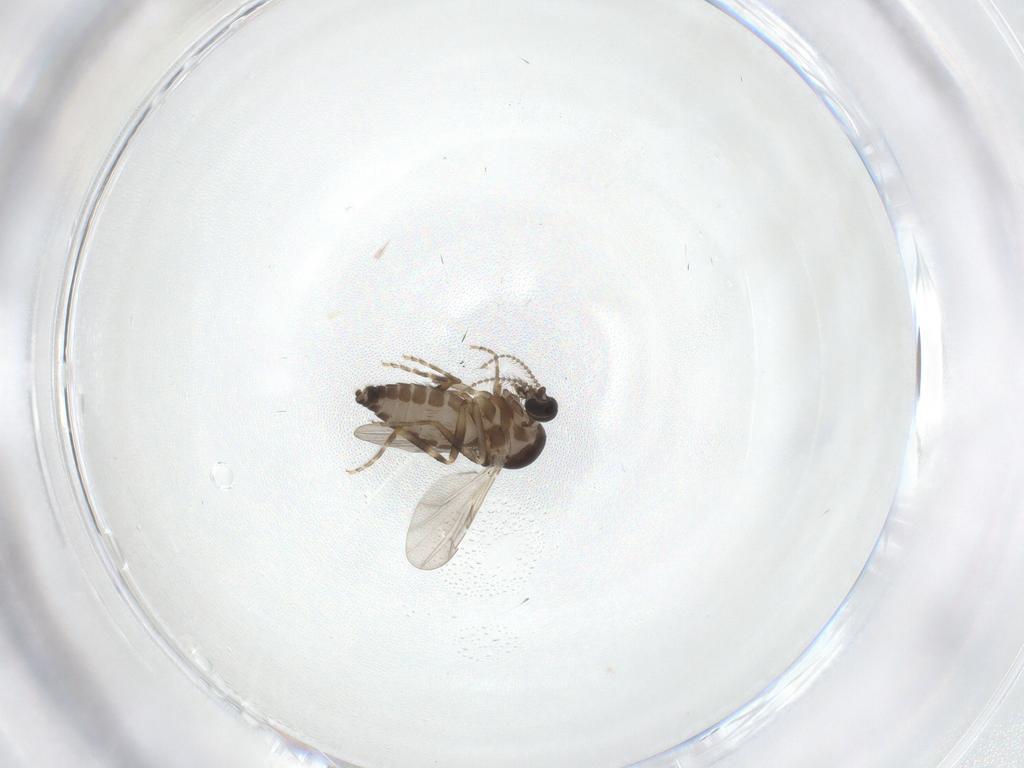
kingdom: Animalia
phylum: Arthropoda
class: Insecta
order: Diptera
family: Ceratopogonidae
